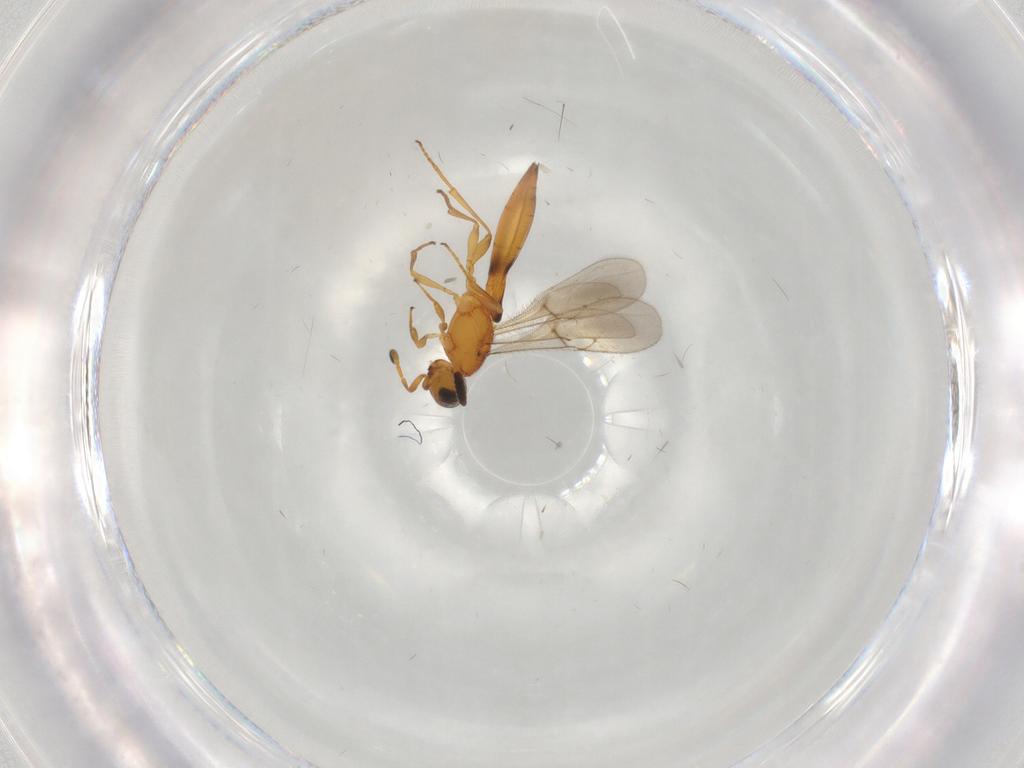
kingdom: Animalia
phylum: Arthropoda
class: Insecta
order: Hymenoptera
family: Scelionidae
